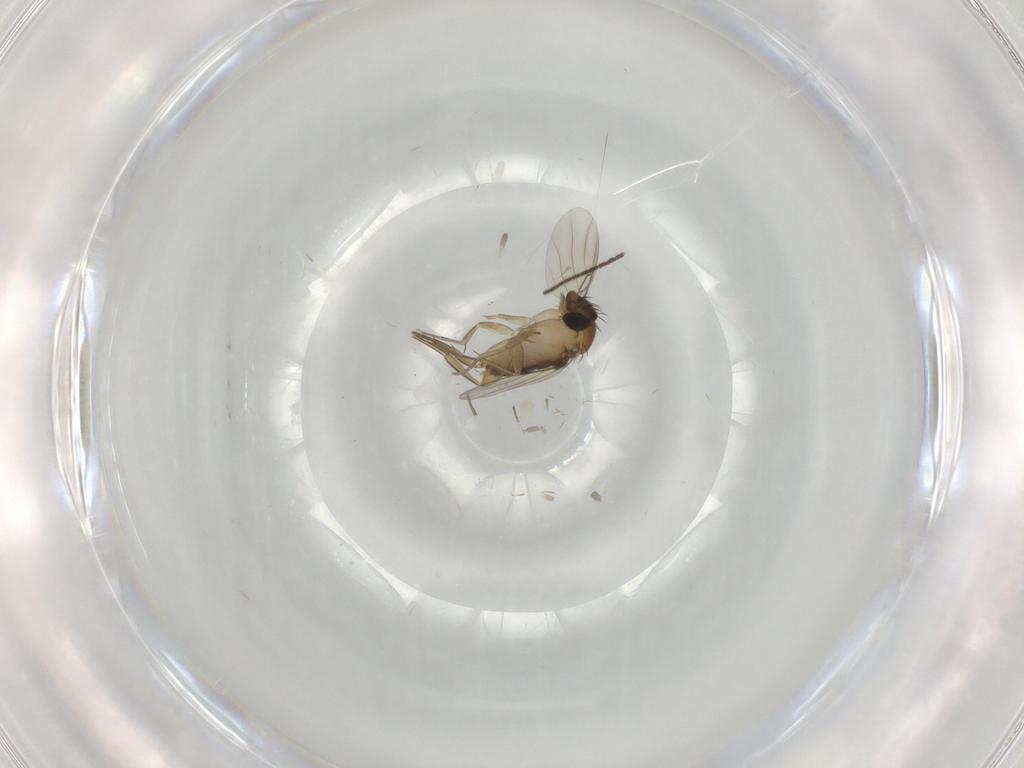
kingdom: Animalia
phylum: Arthropoda
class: Insecta
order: Diptera
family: Phoridae
